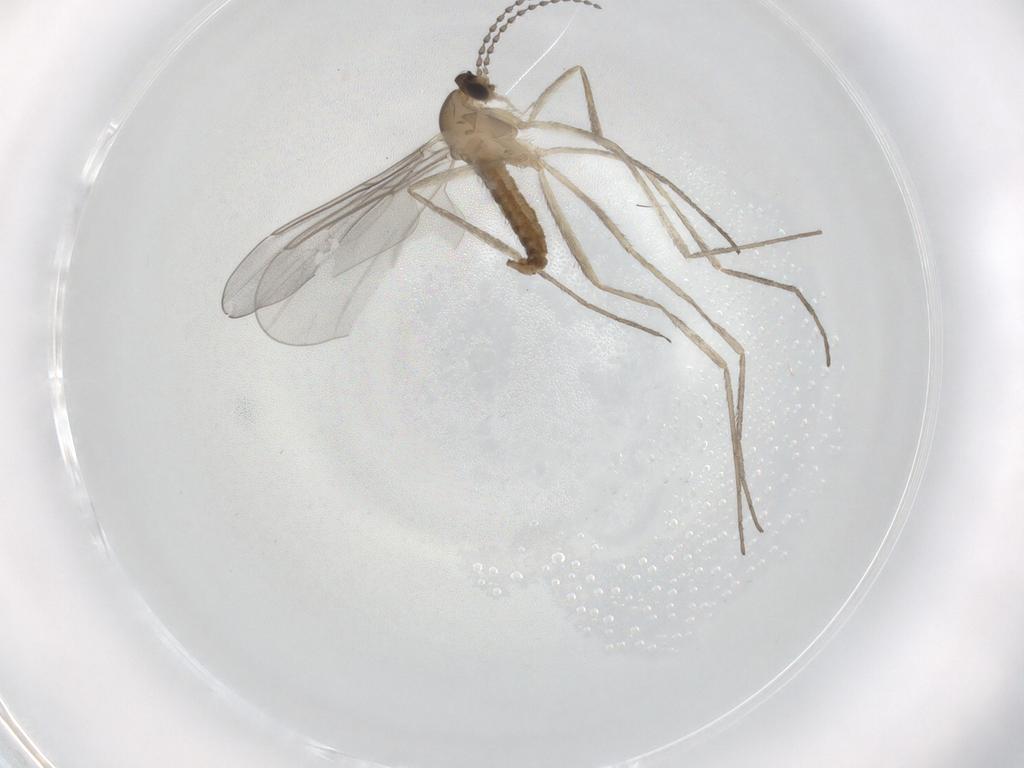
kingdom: Animalia
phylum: Arthropoda
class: Insecta
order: Diptera
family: Cecidomyiidae
